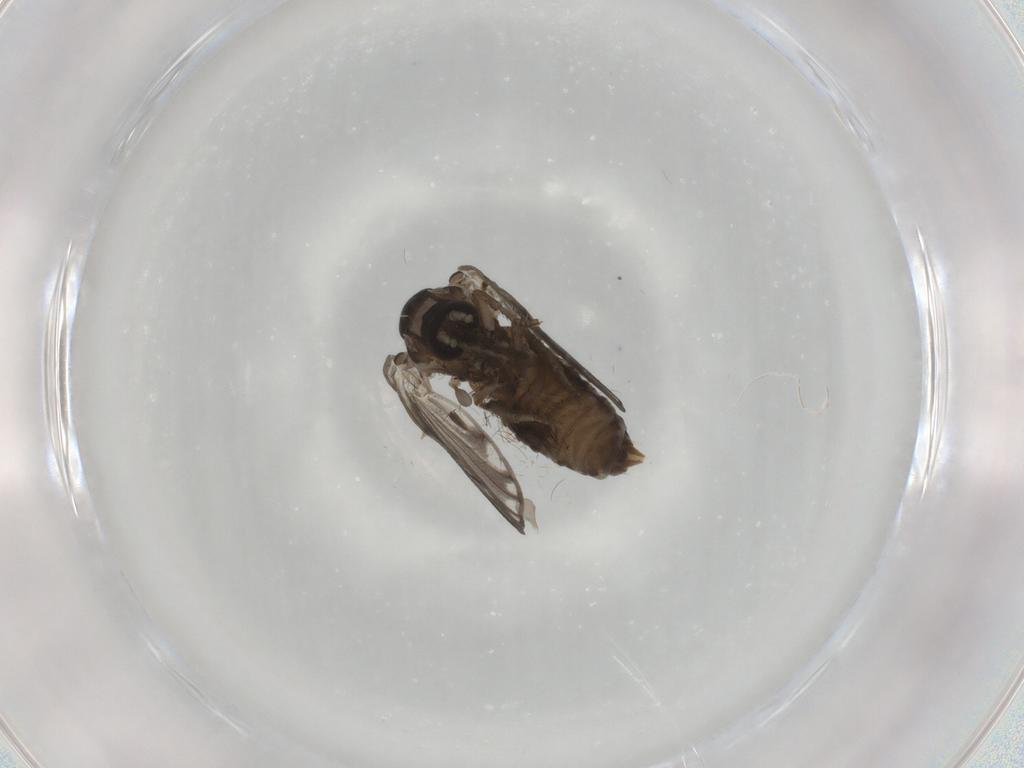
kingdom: Animalia
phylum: Arthropoda
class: Insecta
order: Diptera
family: Psychodidae
